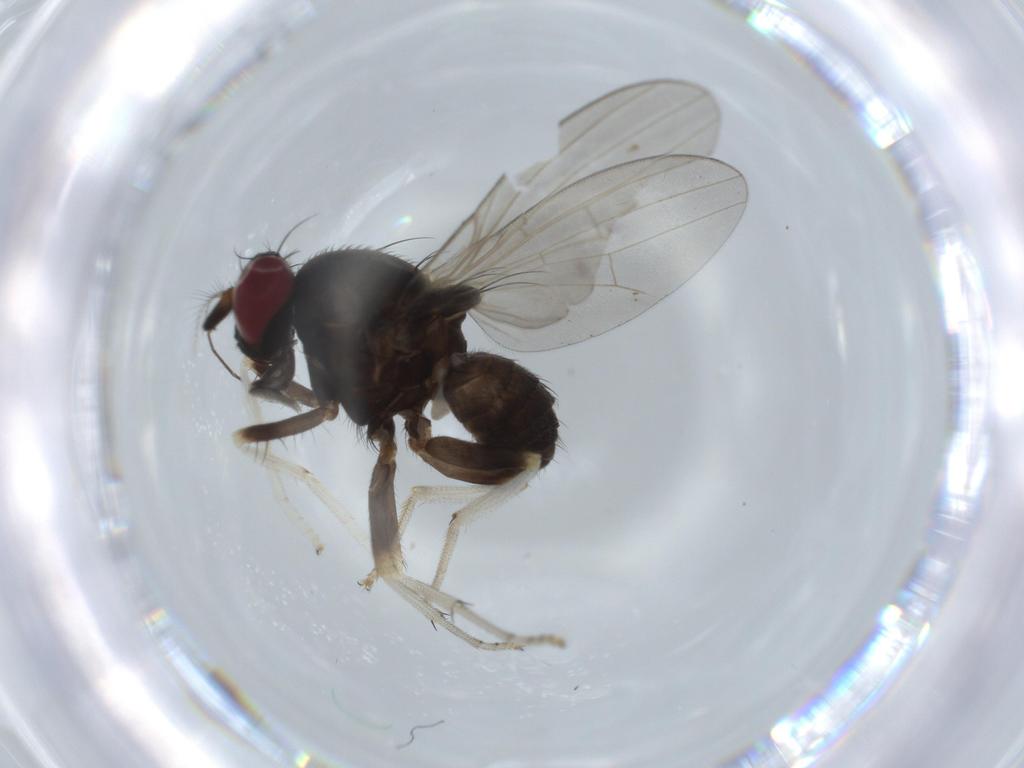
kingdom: Animalia
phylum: Arthropoda
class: Insecta
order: Diptera
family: Lauxaniidae
